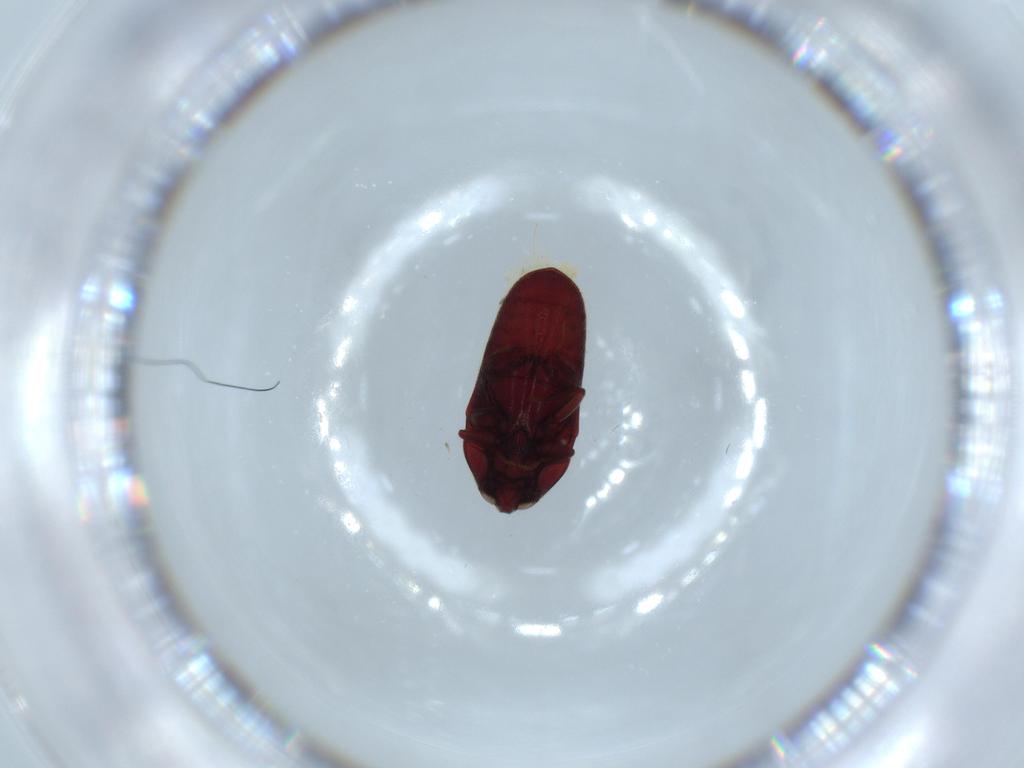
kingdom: Animalia
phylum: Arthropoda
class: Insecta
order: Coleoptera
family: Throscidae
